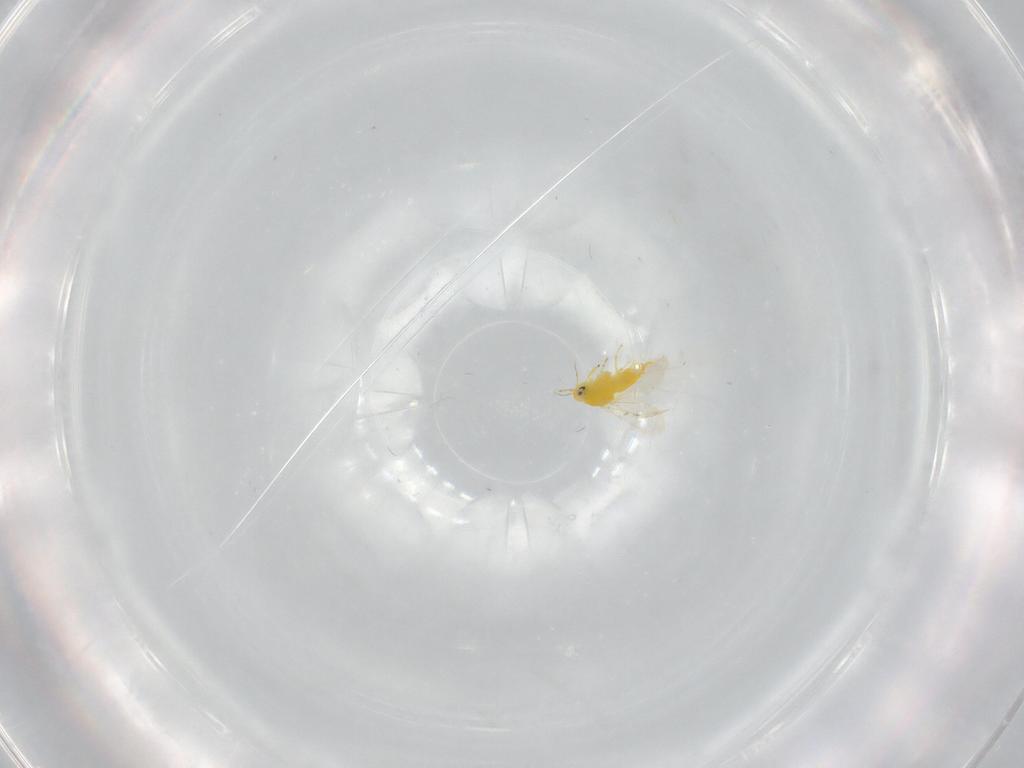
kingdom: Animalia
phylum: Arthropoda
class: Insecta
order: Hemiptera
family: Aleyrodidae
